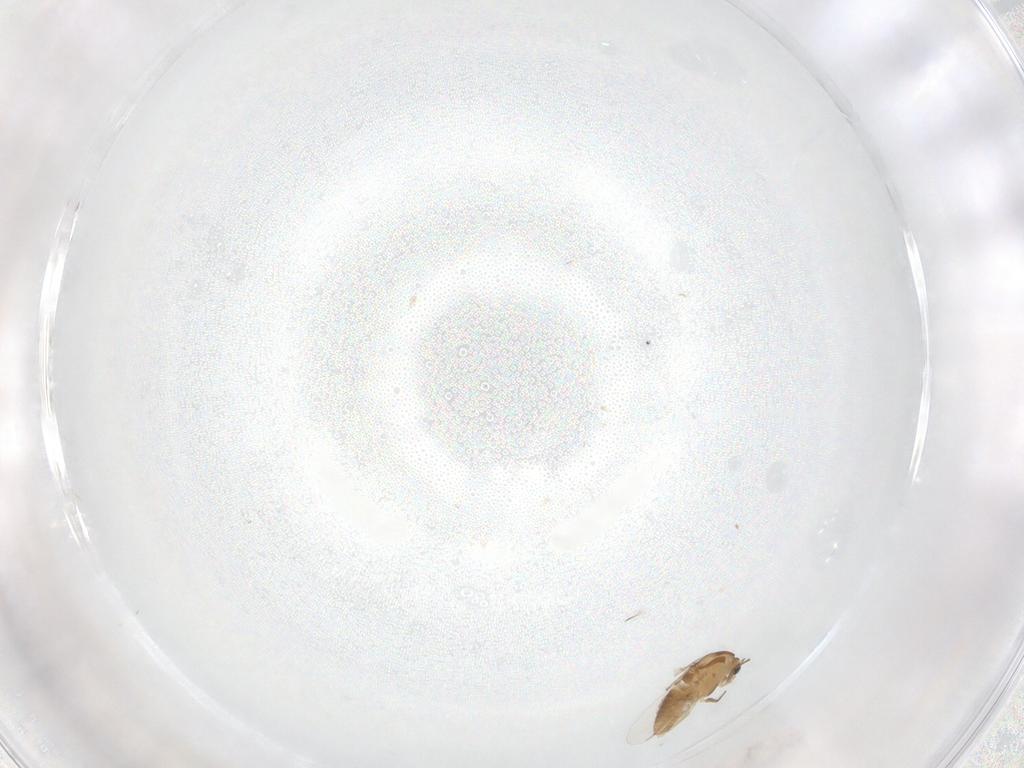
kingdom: Animalia
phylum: Arthropoda
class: Insecta
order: Diptera
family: Chironomidae
